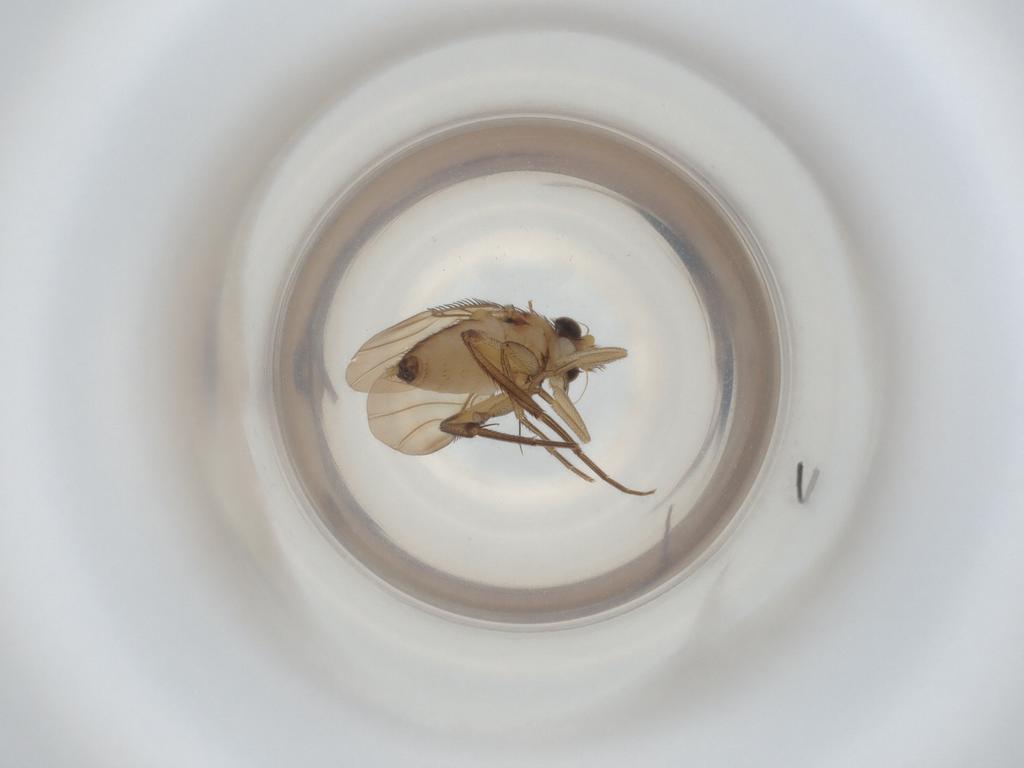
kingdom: Animalia
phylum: Arthropoda
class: Insecta
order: Diptera
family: Phoridae
